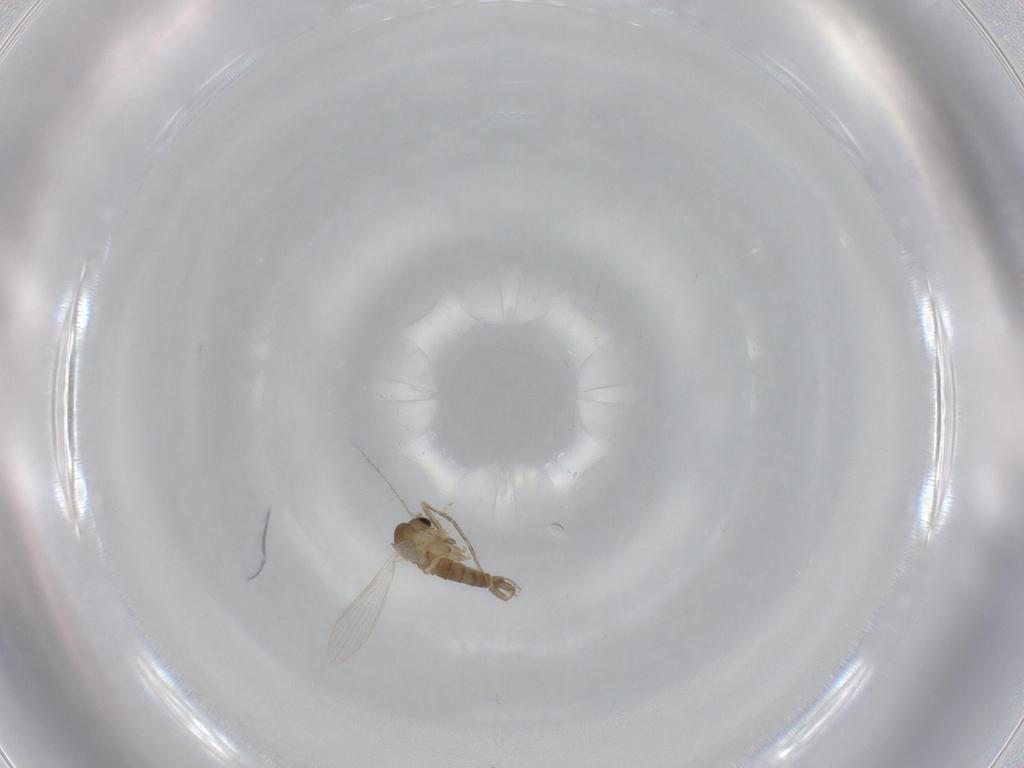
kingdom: Animalia
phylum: Arthropoda
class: Insecta
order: Diptera
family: Psychodidae
